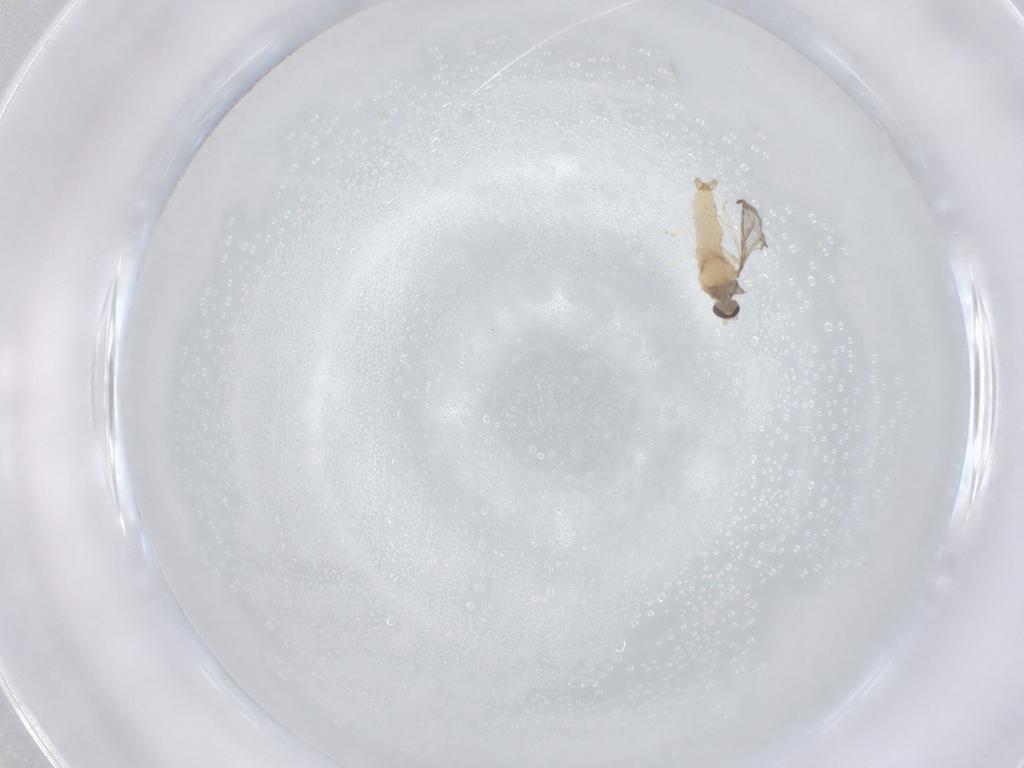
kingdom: Animalia
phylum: Arthropoda
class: Insecta
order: Diptera
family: Cecidomyiidae
